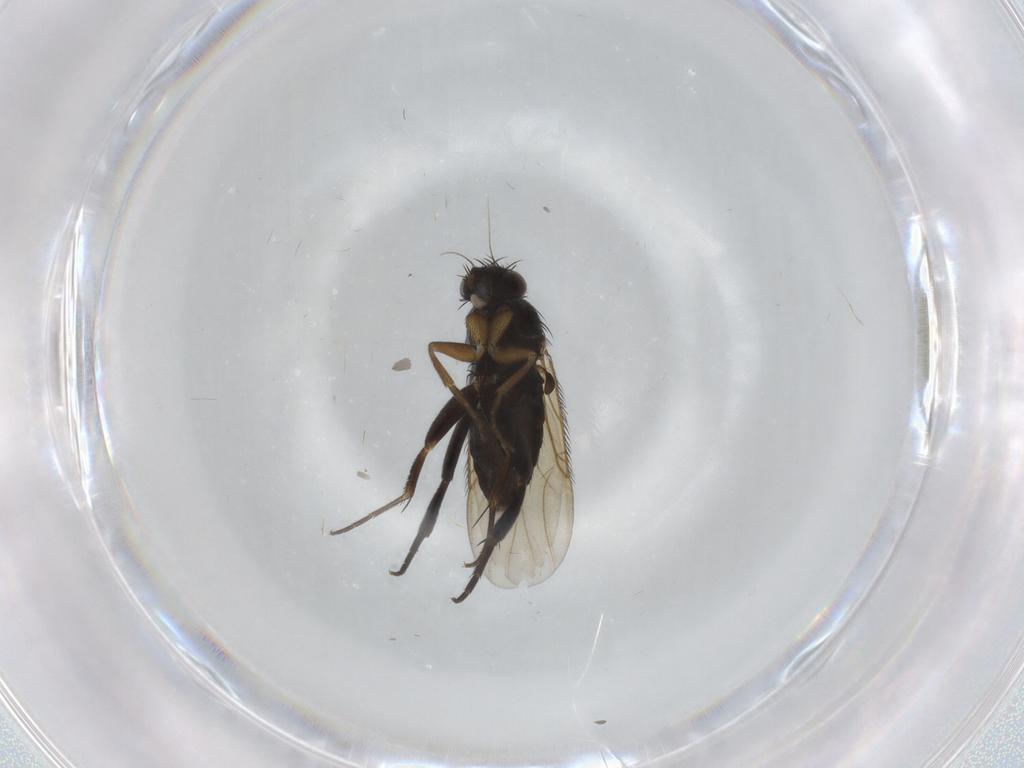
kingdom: Animalia
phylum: Arthropoda
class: Insecta
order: Diptera
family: Phoridae
